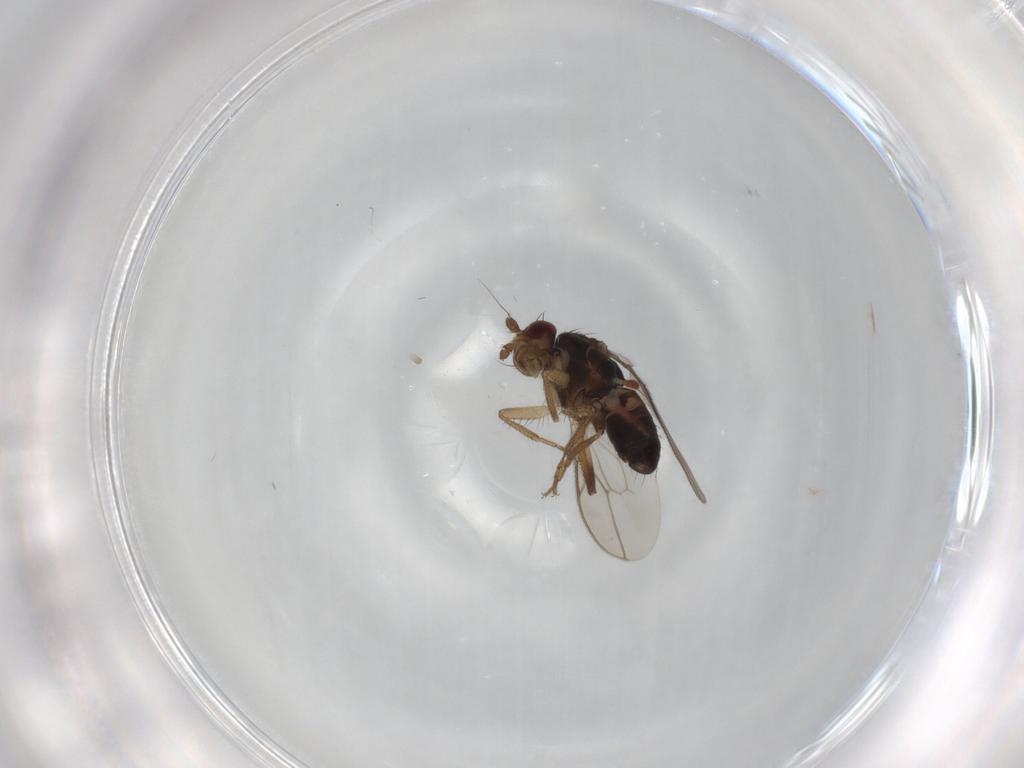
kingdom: Animalia
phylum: Arthropoda
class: Insecta
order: Diptera
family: Sphaeroceridae
